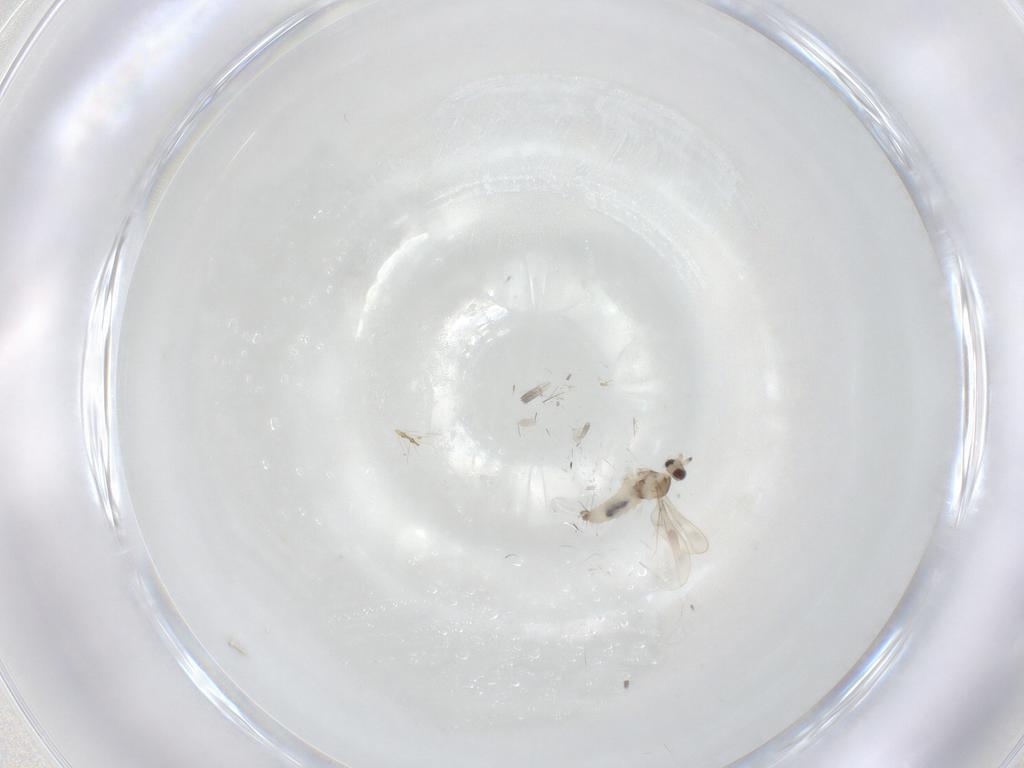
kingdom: Animalia
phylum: Arthropoda
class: Insecta
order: Diptera
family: Cecidomyiidae
